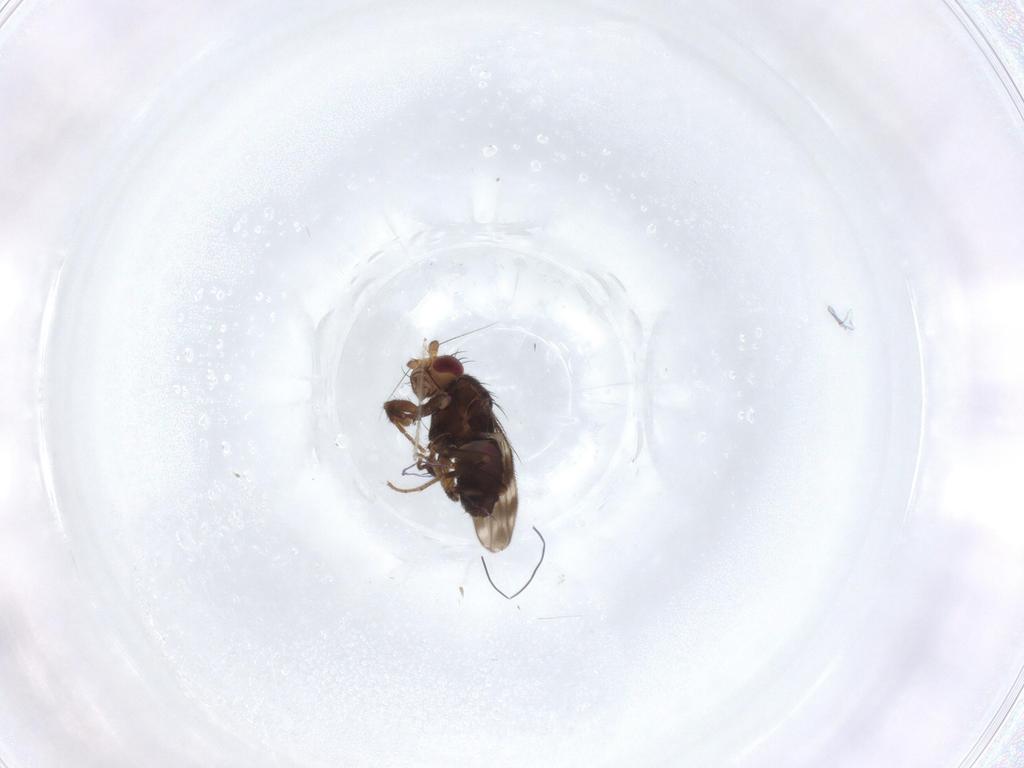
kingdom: Animalia
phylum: Arthropoda
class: Insecta
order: Diptera
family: Sphaeroceridae
